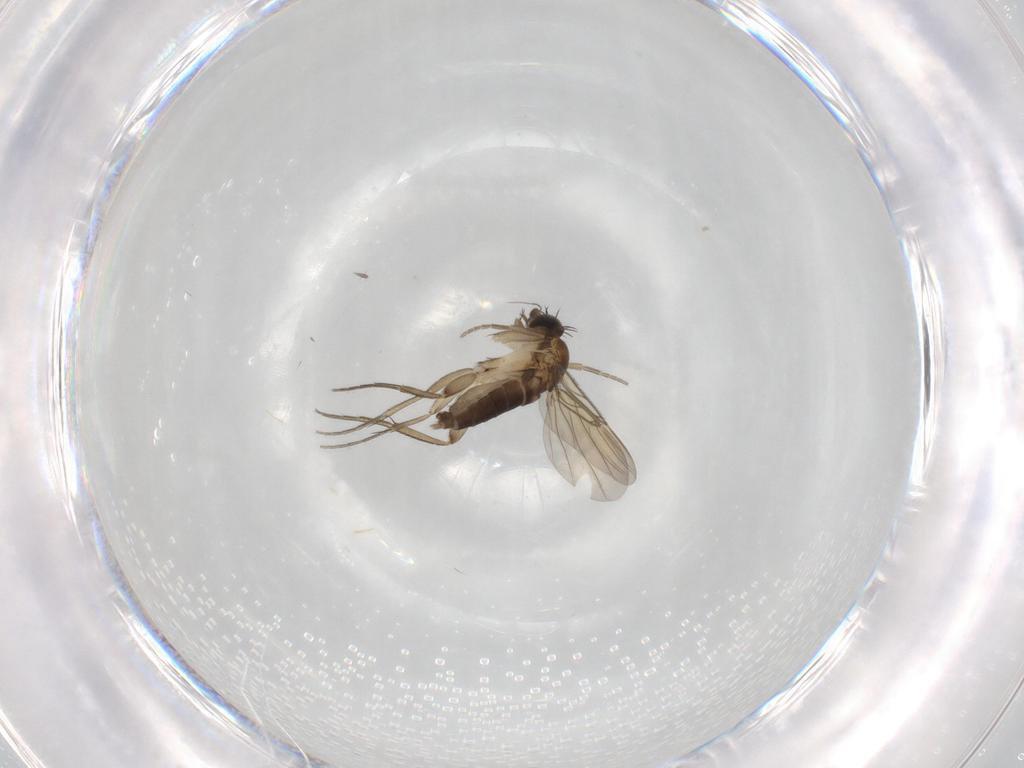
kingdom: Animalia
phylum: Arthropoda
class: Insecta
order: Diptera
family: Phoridae
